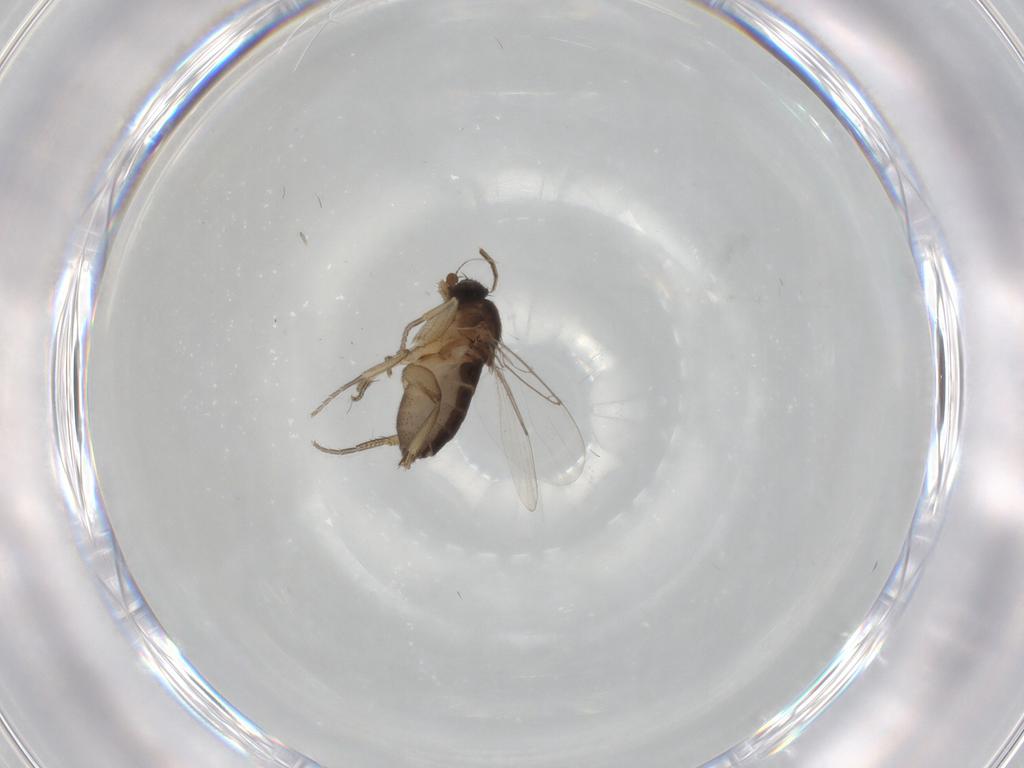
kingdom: Animalia
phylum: Arthropoda
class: Insecta
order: Diptera
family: Phoridae
